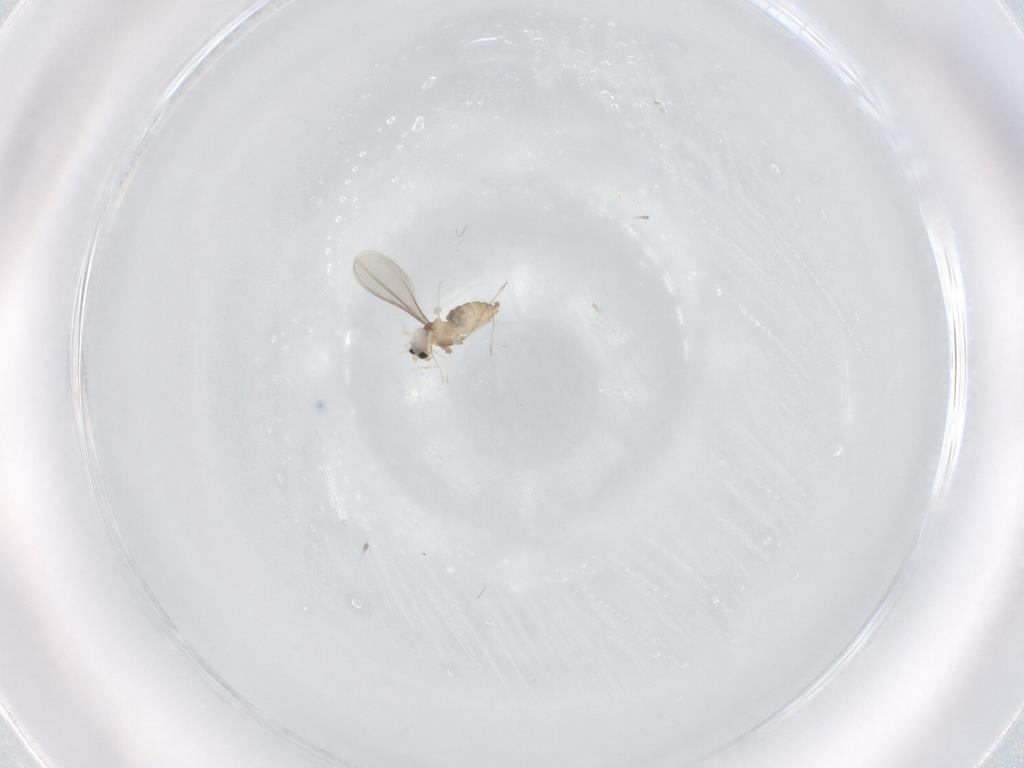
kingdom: Animalia
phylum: Arthropoda
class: Insecta
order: Diptera
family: Cecidomyiidae
